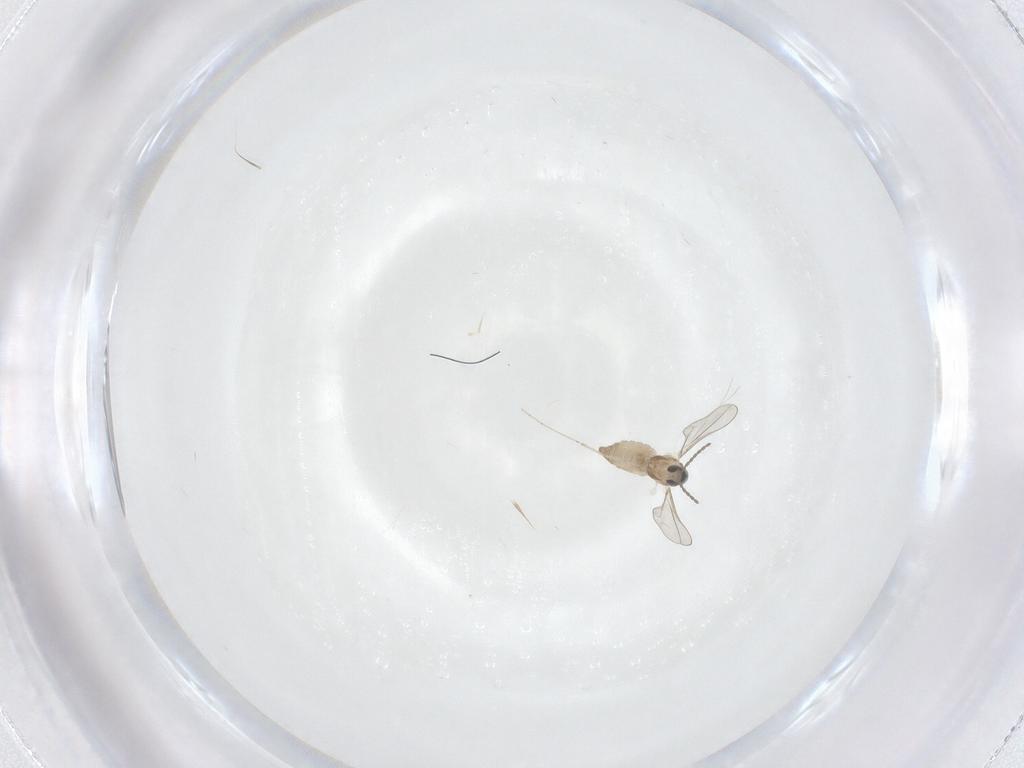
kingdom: Animalia
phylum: Arthropoda
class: Insecta
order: Diptera
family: Cecidomyiidae
